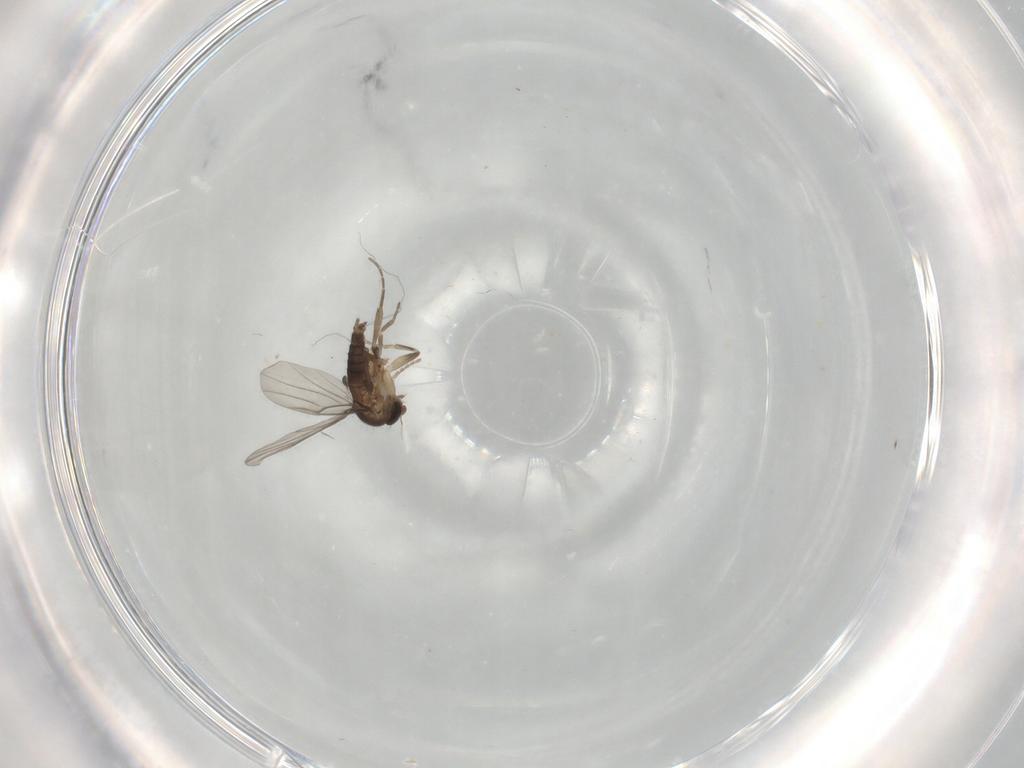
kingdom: Animalia
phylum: Arthropoda
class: Insecta
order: Diptera
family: Phoridae
